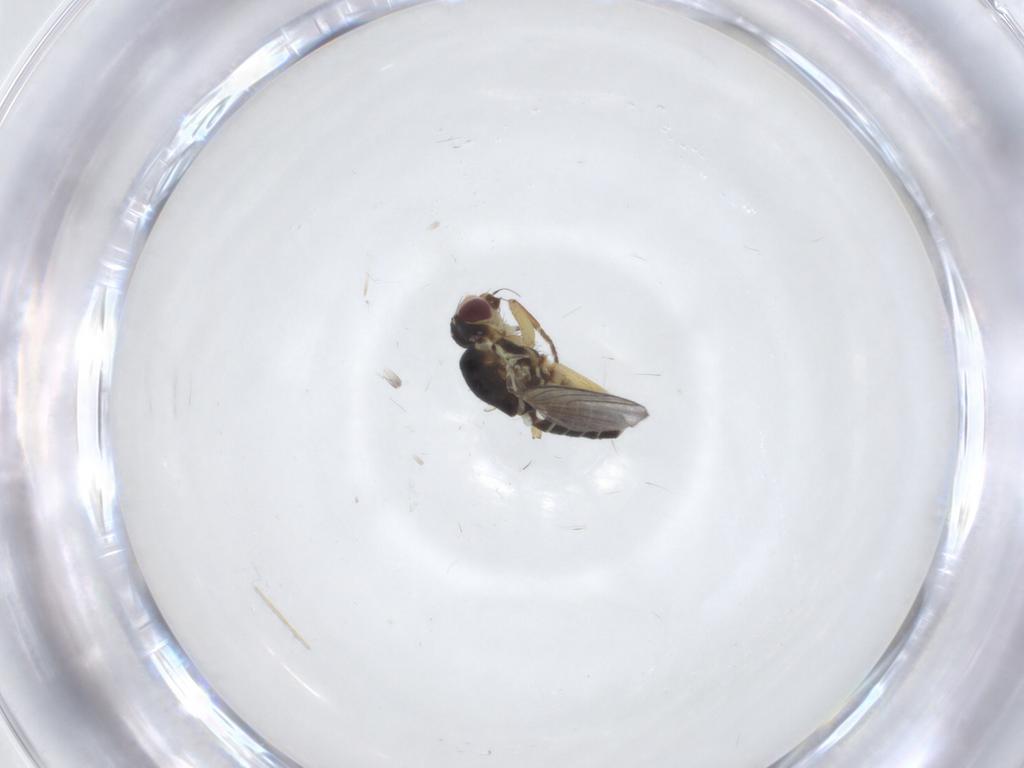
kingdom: Animalia
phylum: Arthropoda
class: Insecta
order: Diptera
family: Agromyzidae
